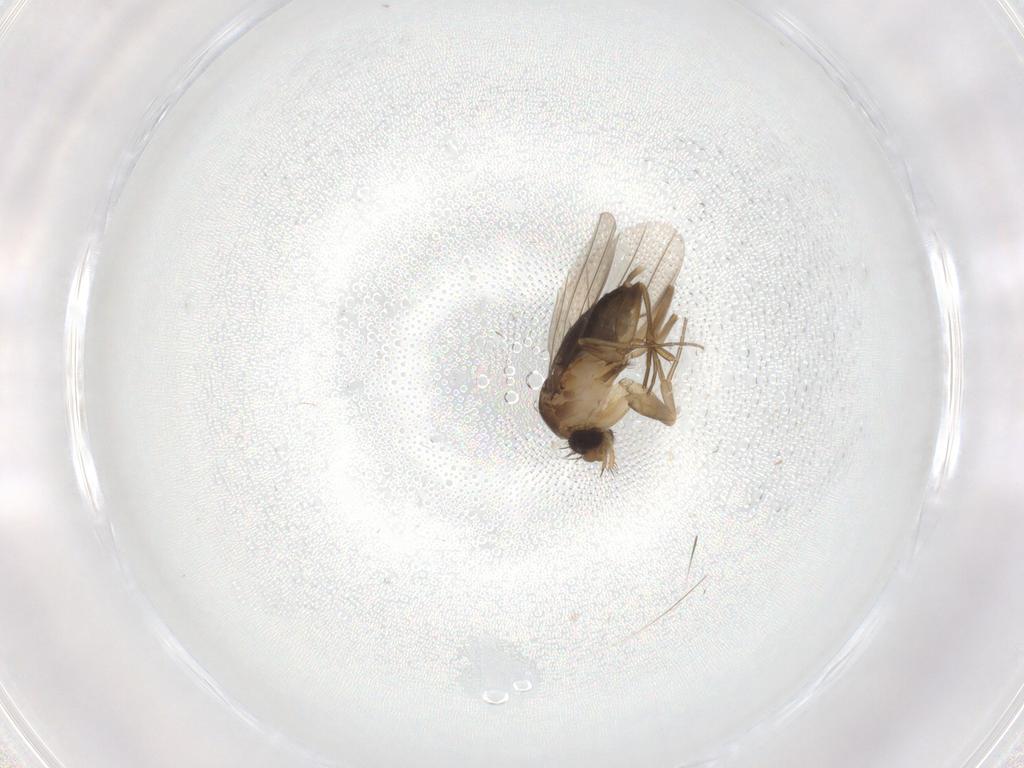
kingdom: Animalia
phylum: Arthropoda
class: Insecta
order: Diptera
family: Phoridae
